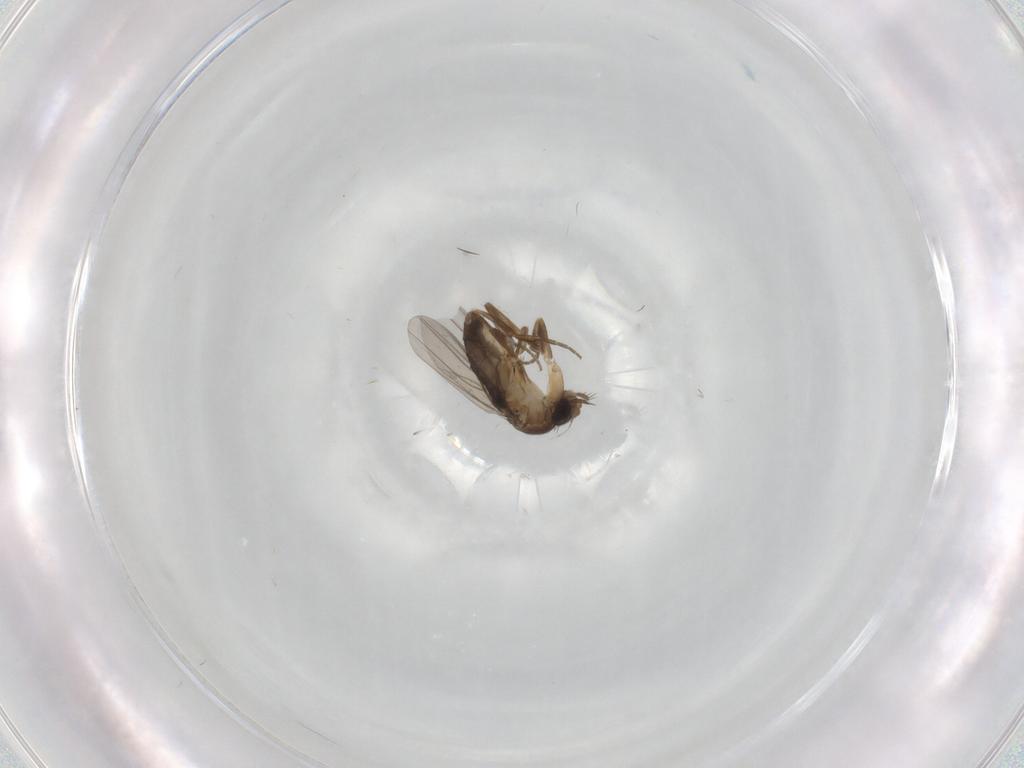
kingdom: Animalia
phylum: Arthropoda
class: Insecta
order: Diptera
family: Phoridae
